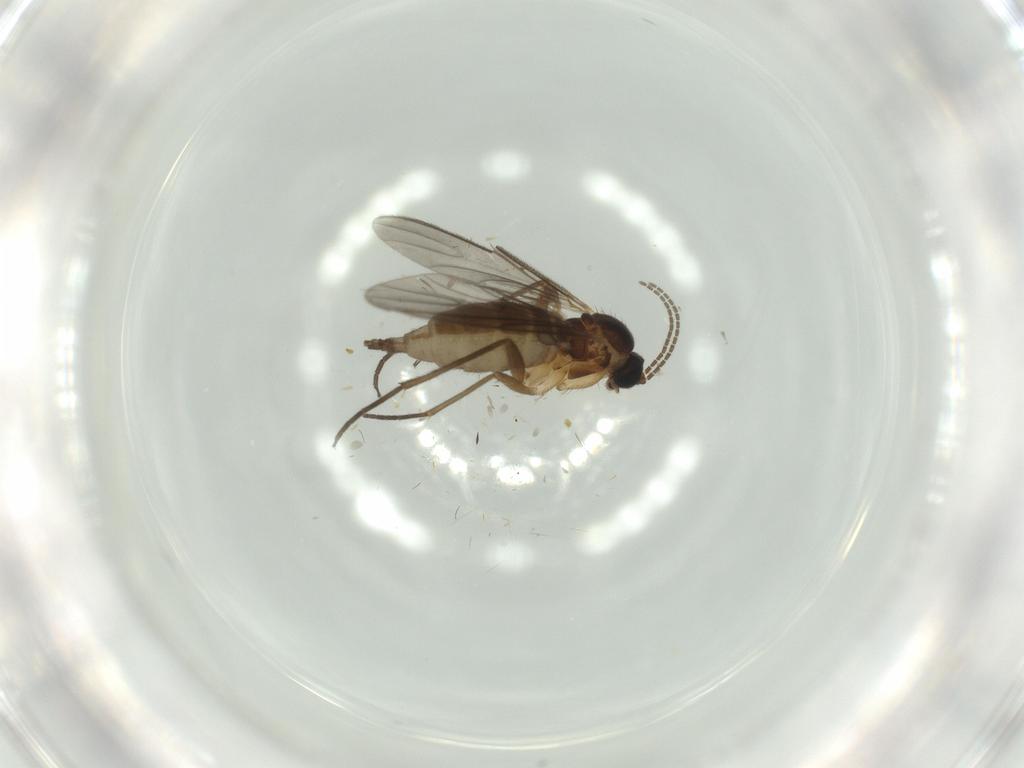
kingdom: Animalia
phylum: Arthropoda
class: Insecta
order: Diptera
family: Sciaridae
